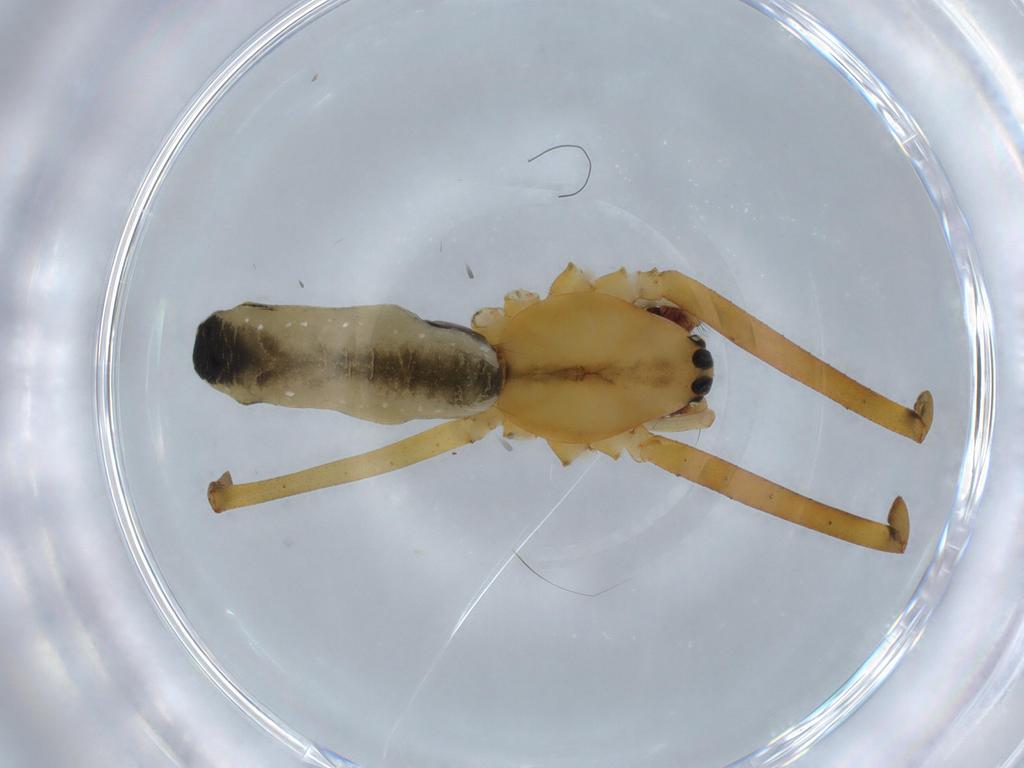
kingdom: Animalia
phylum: Arthropoda
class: Arachnida
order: Araneae
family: Linyphiidae
